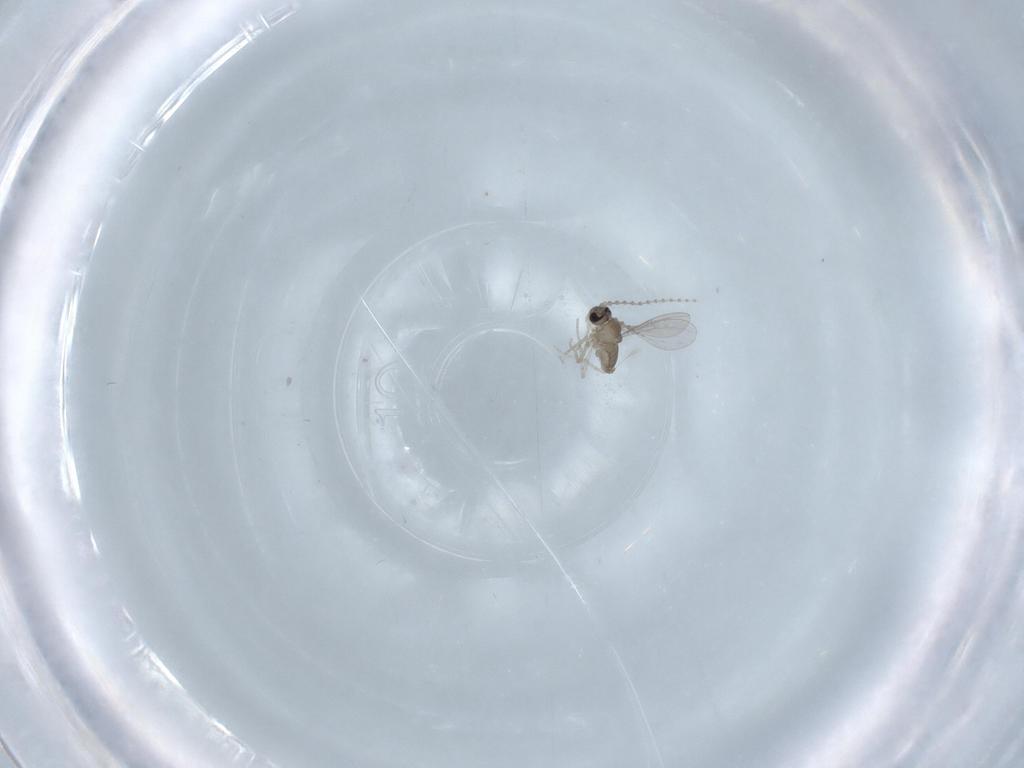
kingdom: Animalia
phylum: Arthropoda
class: Insecta
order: Diptera
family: Cecidomyiidae
